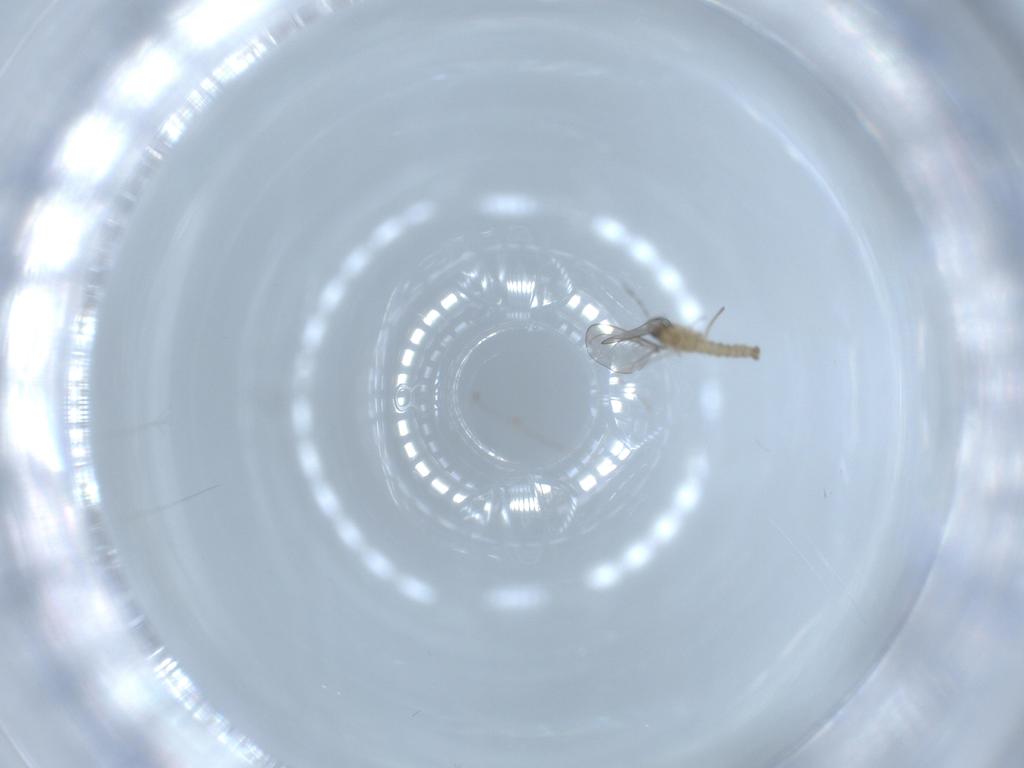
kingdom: Animalia
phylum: Arthropoda
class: Insecta
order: Diptera
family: Cecidomyiidae
